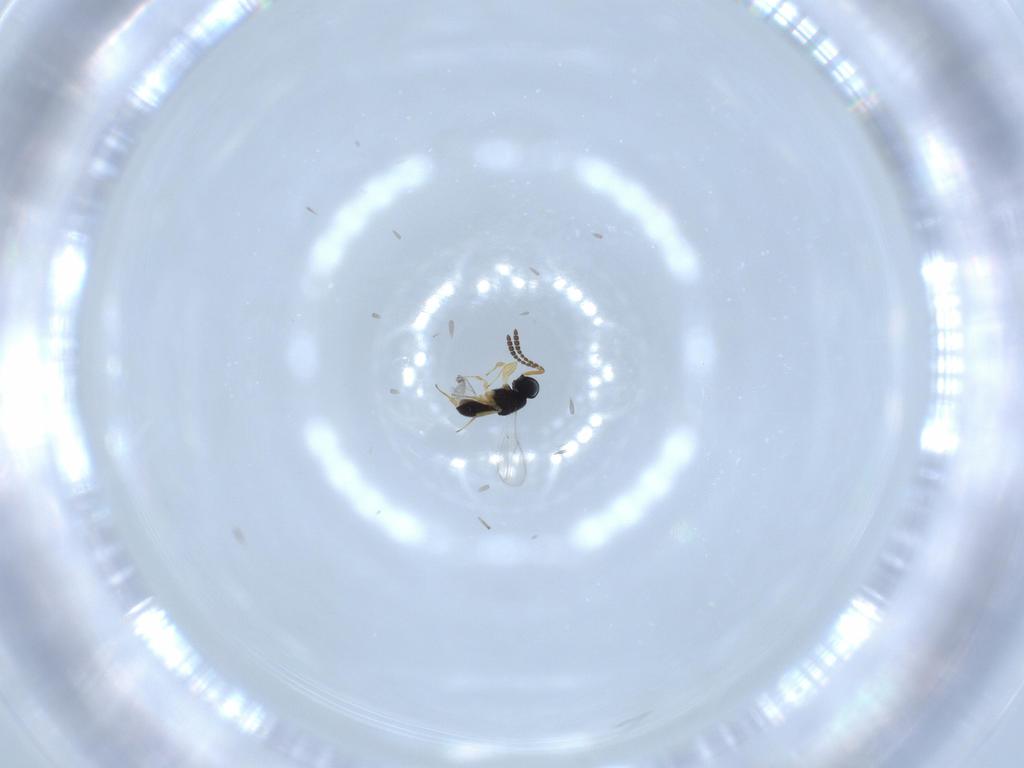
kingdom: Animalia
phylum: Arthropoda
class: Insecta
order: Hymenoptera
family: Scelionidae
